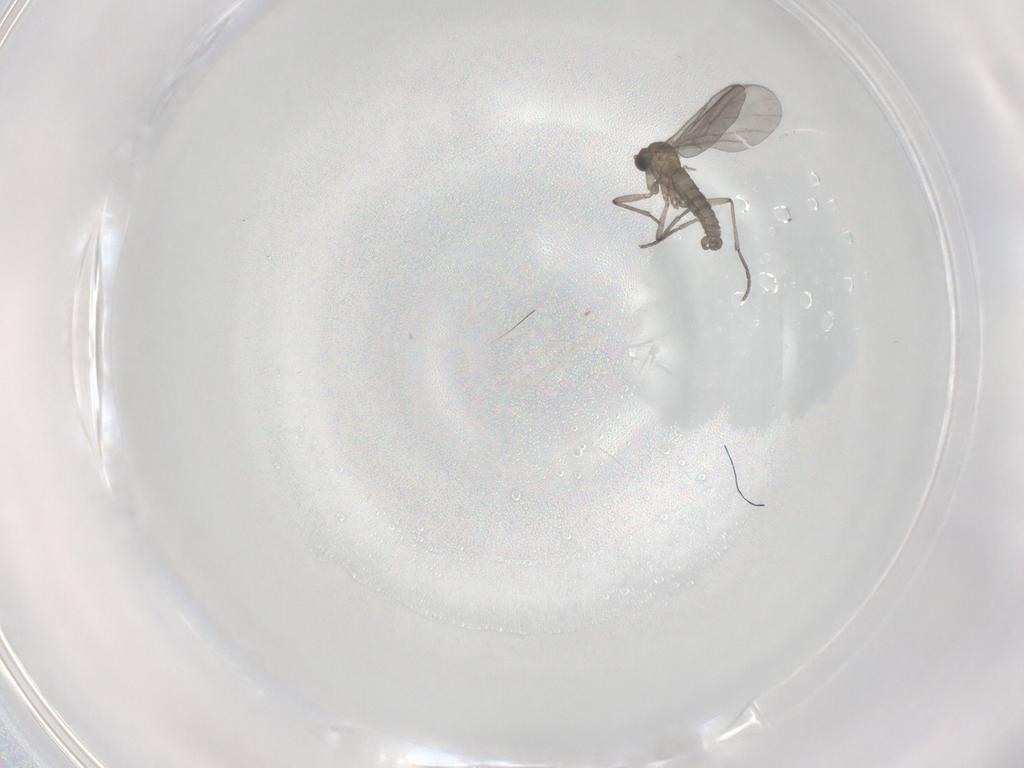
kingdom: Animalia
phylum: Arthropoda
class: Insecta
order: Diptera
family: Sciaridae
